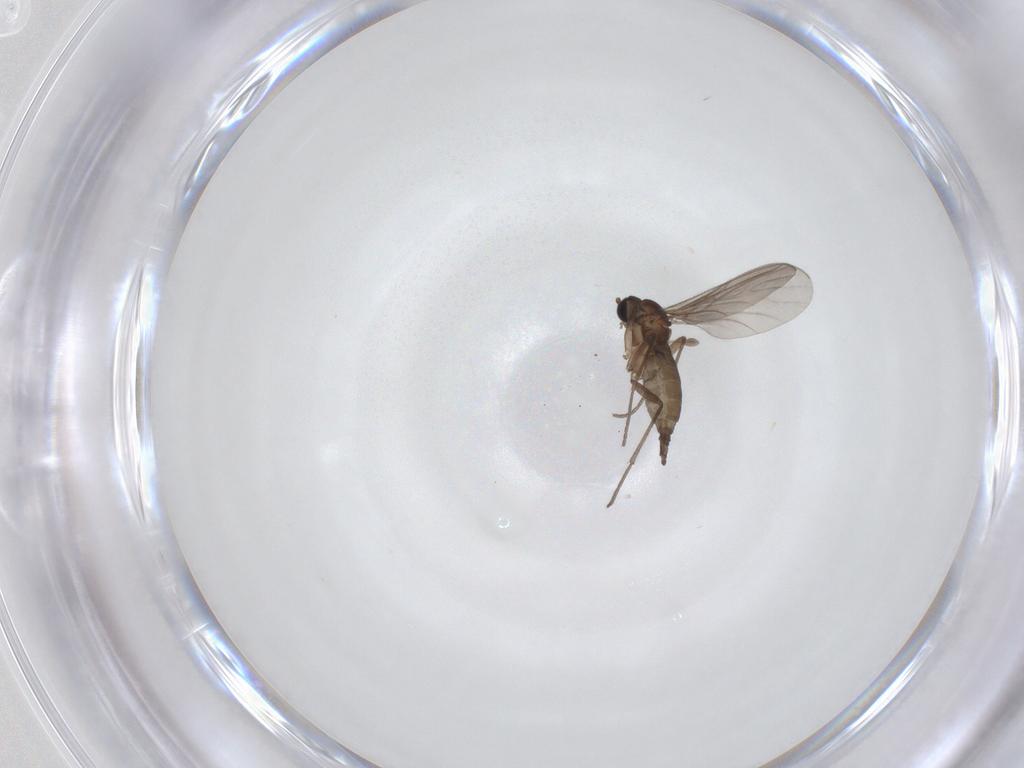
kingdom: Animalia
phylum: Arthropoda
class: Insecta
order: Diptera
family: Sciaridae
